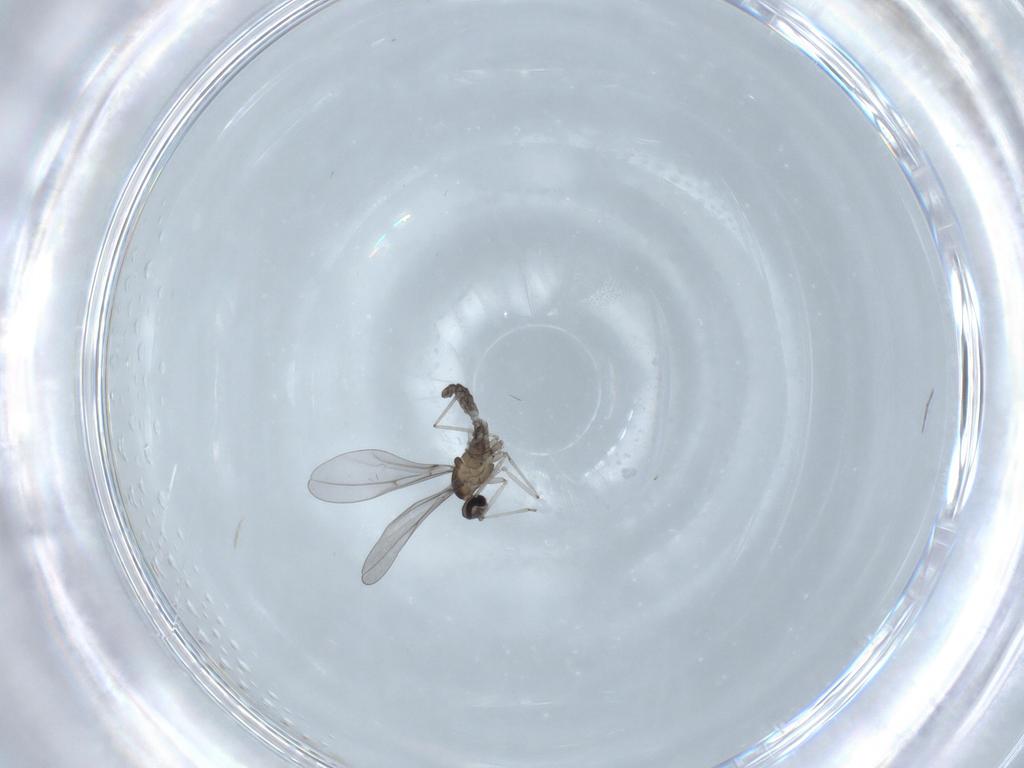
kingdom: Animalia
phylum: Arthropoda
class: Insecta
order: Diptera
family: Cecidomyiidae
